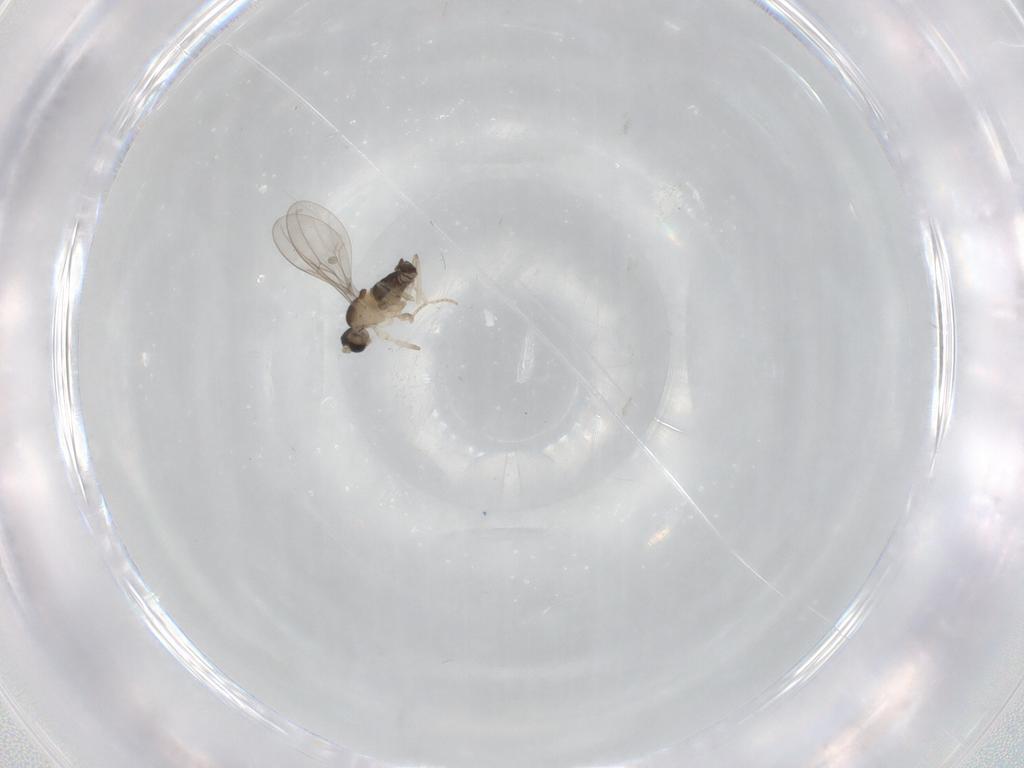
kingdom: Animalia
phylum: Arthropoda
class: Insecta
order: Diptera
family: Cecidomyiidae
